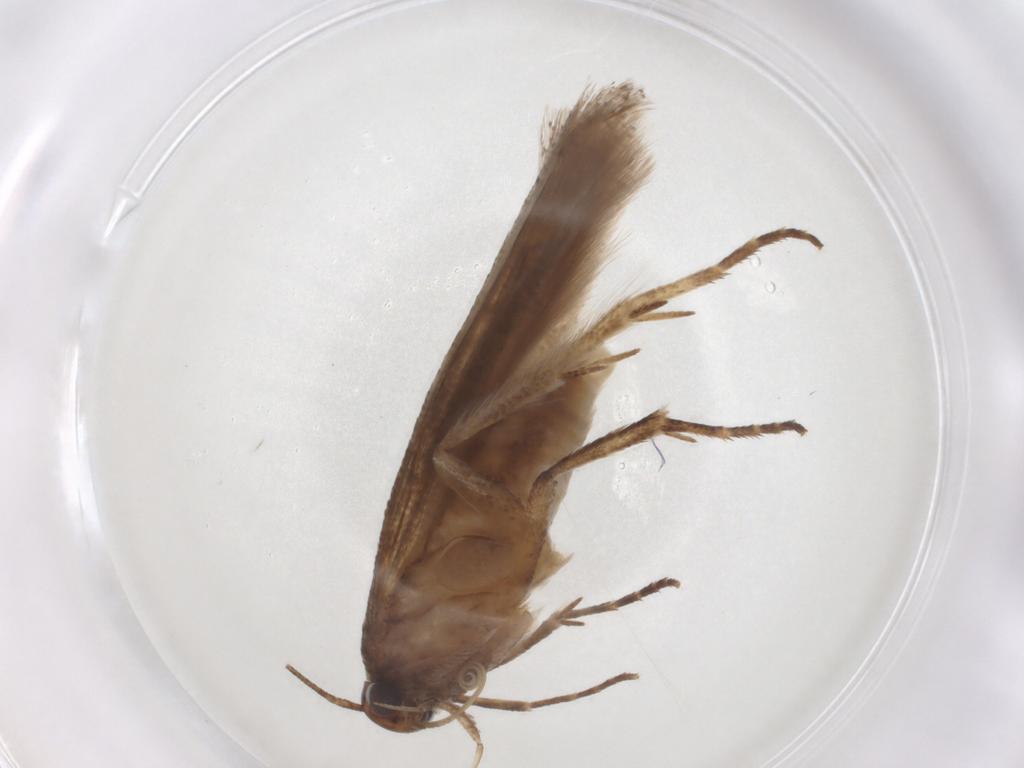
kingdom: Animalia
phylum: Arthropoda
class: Insecta
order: Lepidoptera
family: Gelechiidae
